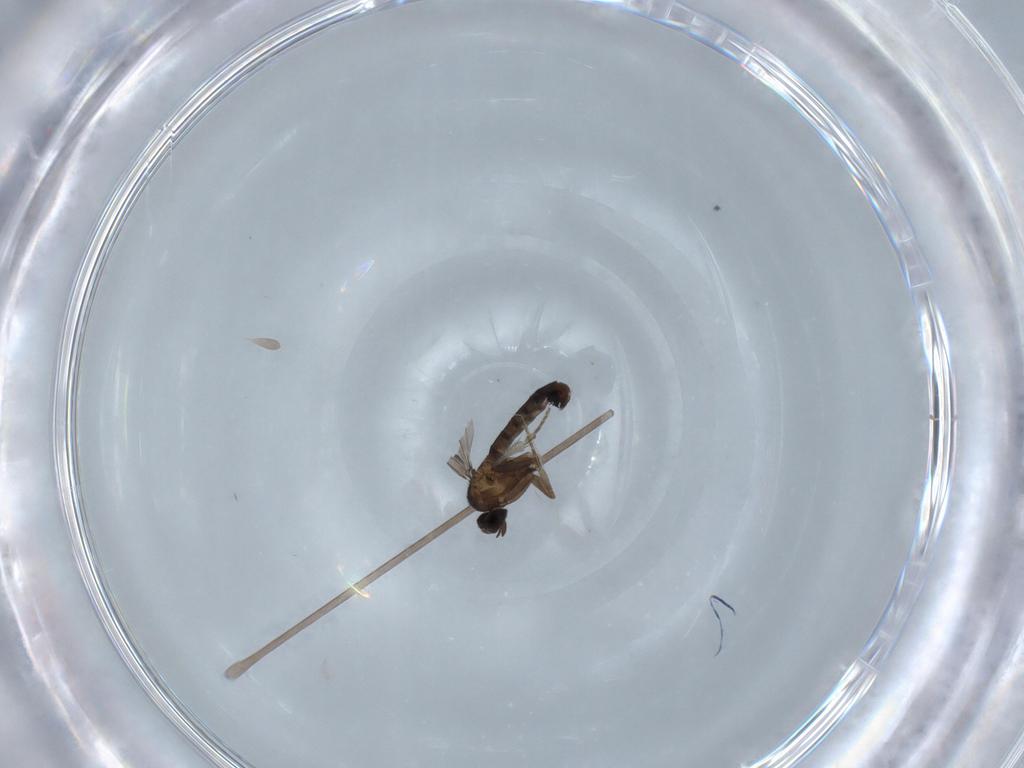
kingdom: Animalia
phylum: Arthropoda
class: Insecta
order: Diptera
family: Phoridae
